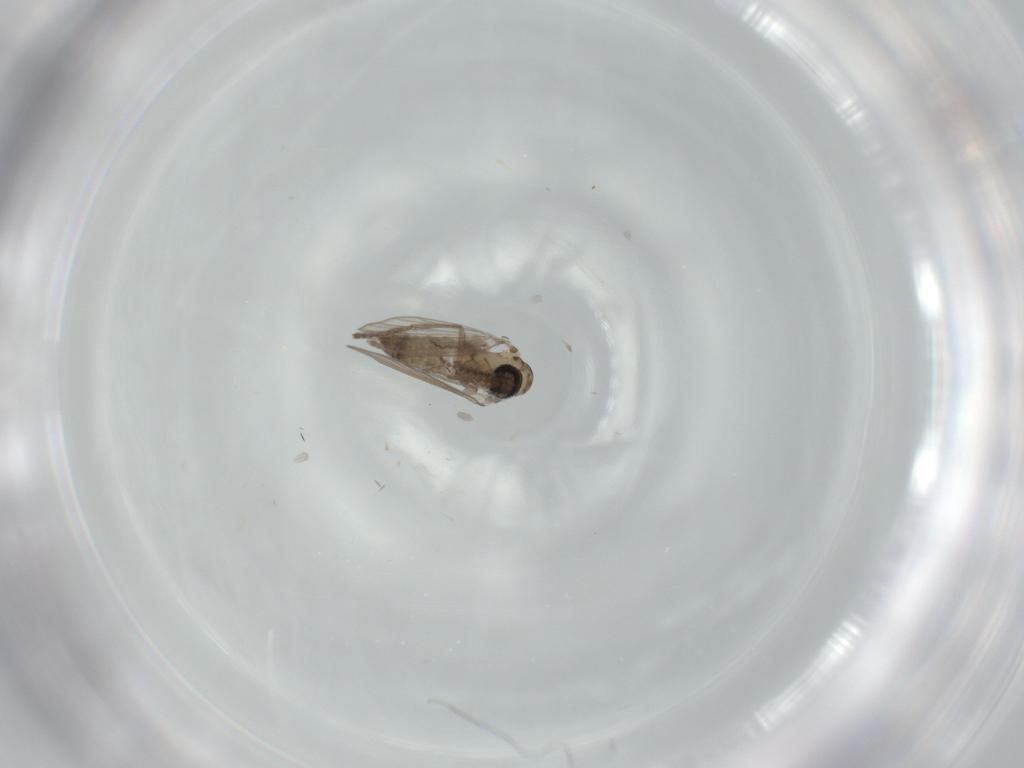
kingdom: Animalia
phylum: Arthropoda
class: Insecta
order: Diptera
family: Psychodidae
